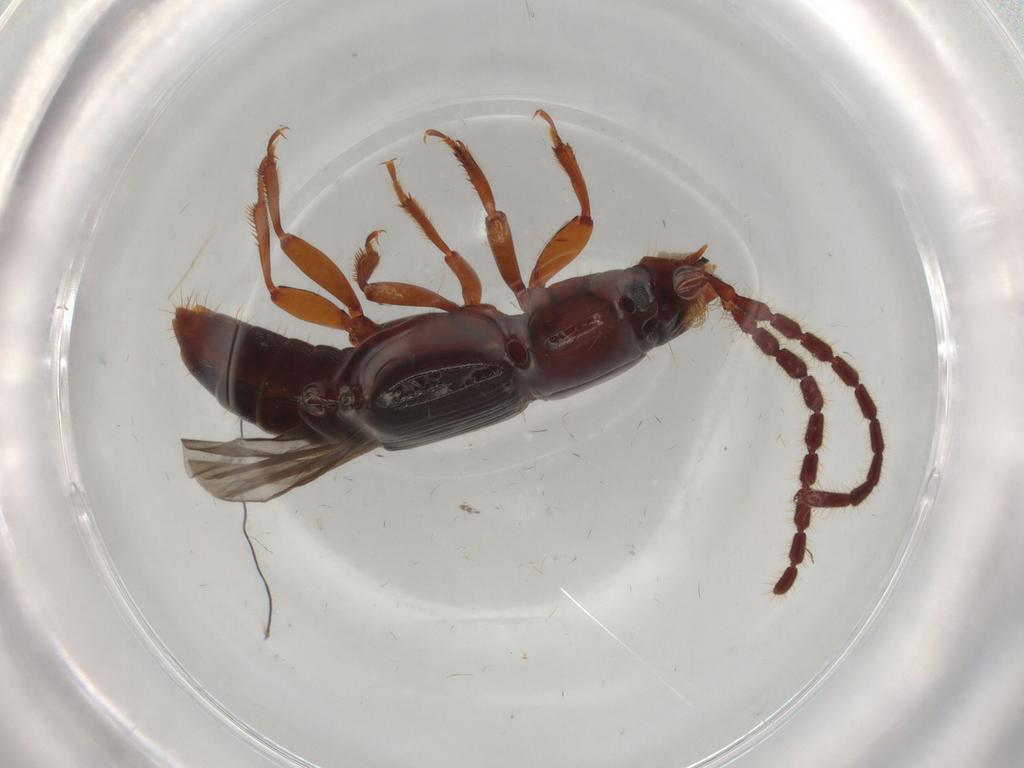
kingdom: Animalia
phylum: Arthropoda
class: Insecta
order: Coleoptera
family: Staphylinidae
